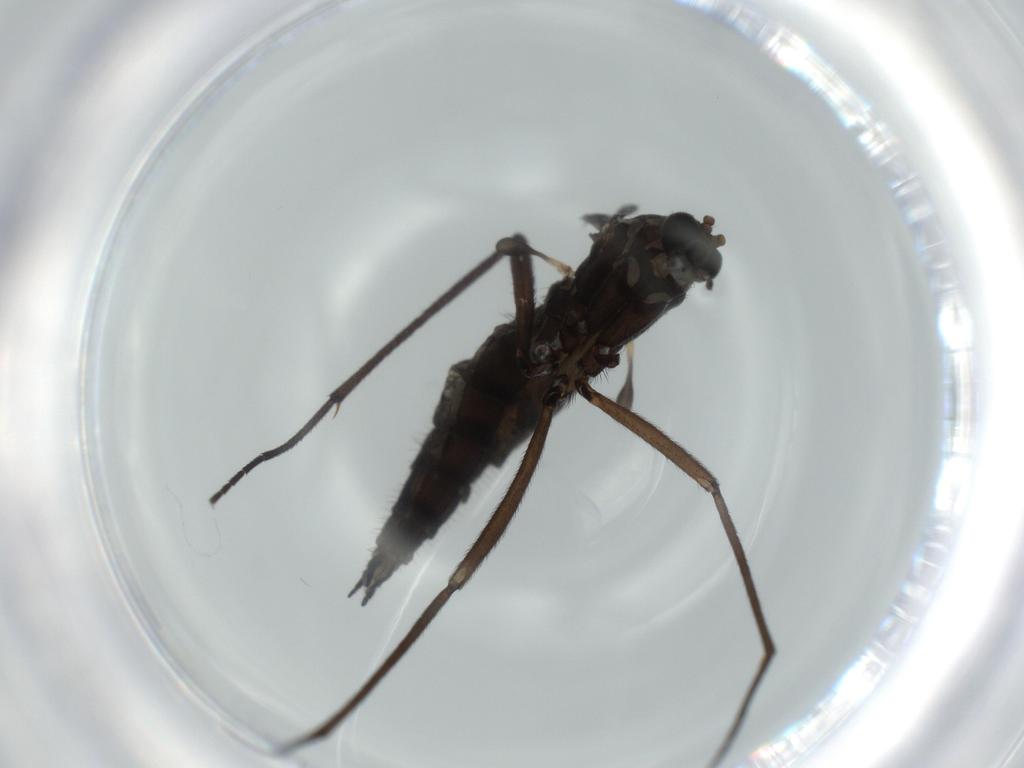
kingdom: Animalia
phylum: Arthropoda
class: Insecta
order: Diptera
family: Sciaridae
